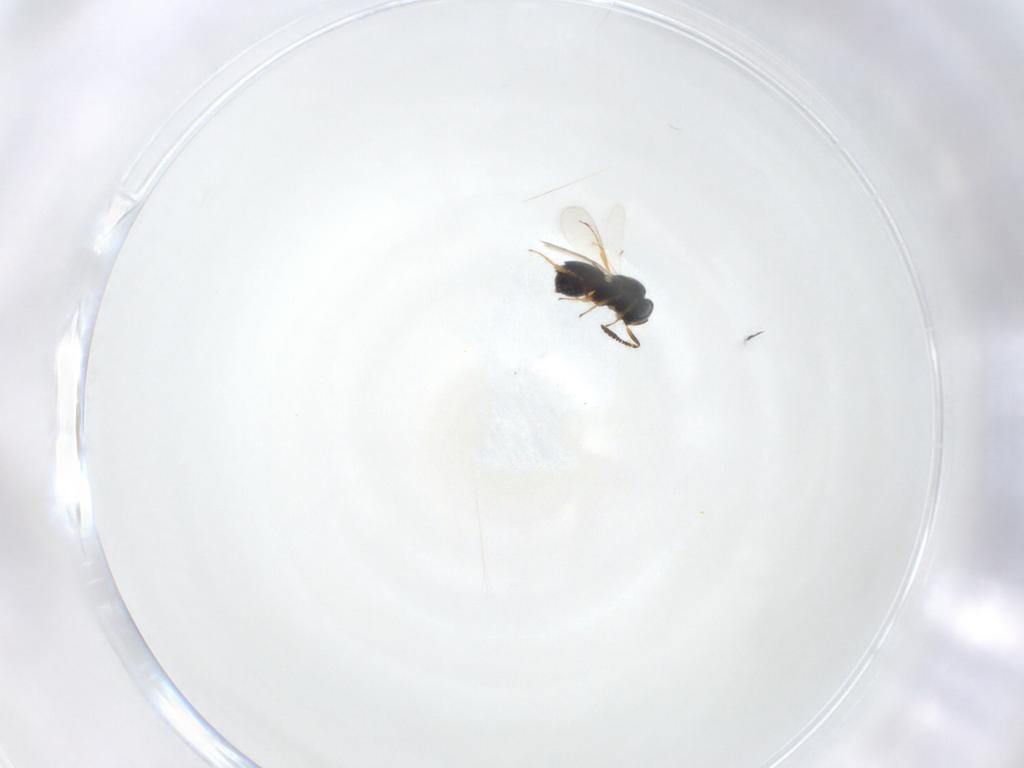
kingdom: Animalia
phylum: Arthropoda
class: Insecta
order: Hymenoptera
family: Scelionidae
